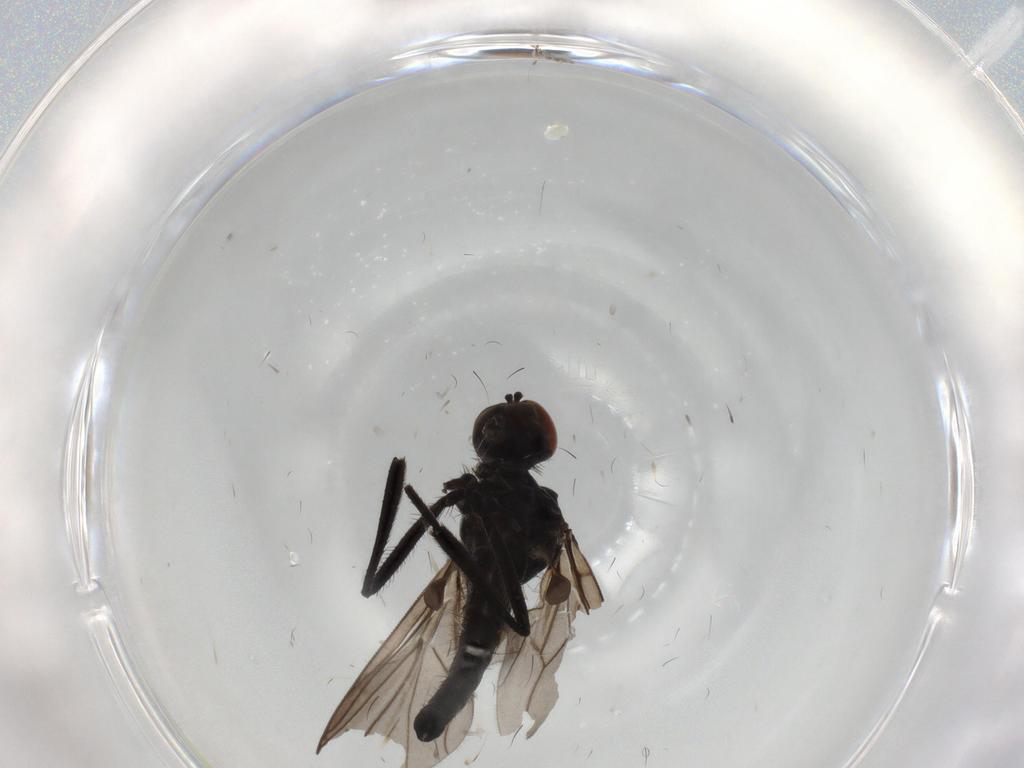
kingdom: Animalia
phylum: Arthropoda
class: Insecta
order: Diptera
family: Hybotidae
